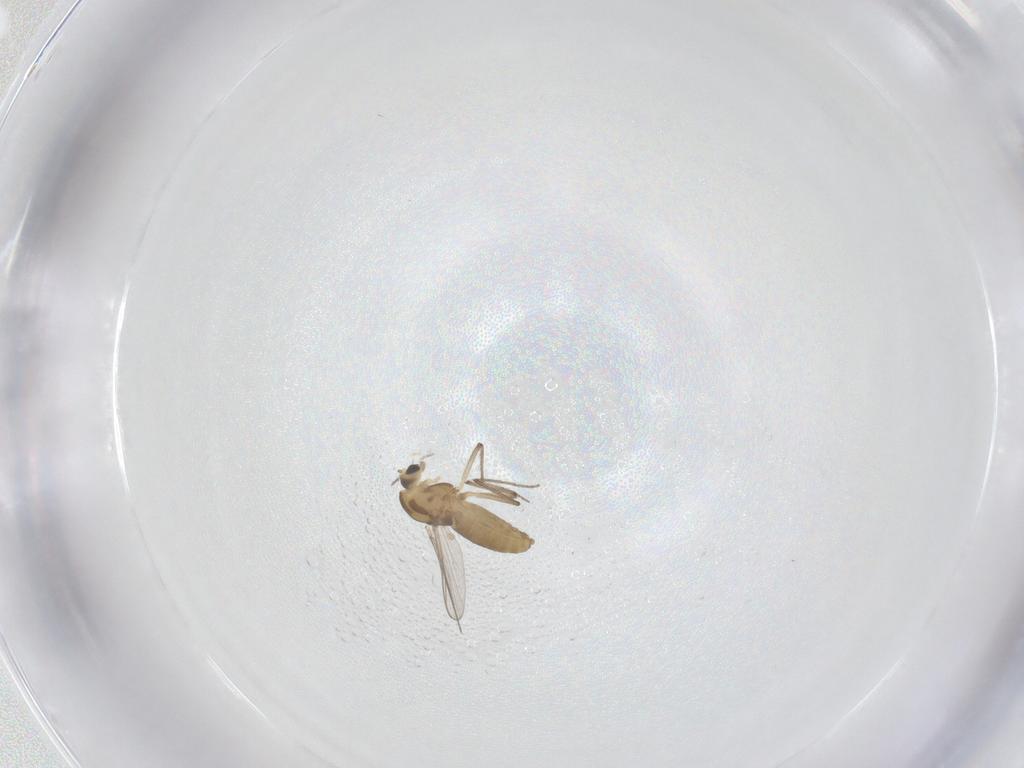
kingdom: Animalia
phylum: Arthropoda
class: Insecta
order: Diptera
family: Chironomidae
